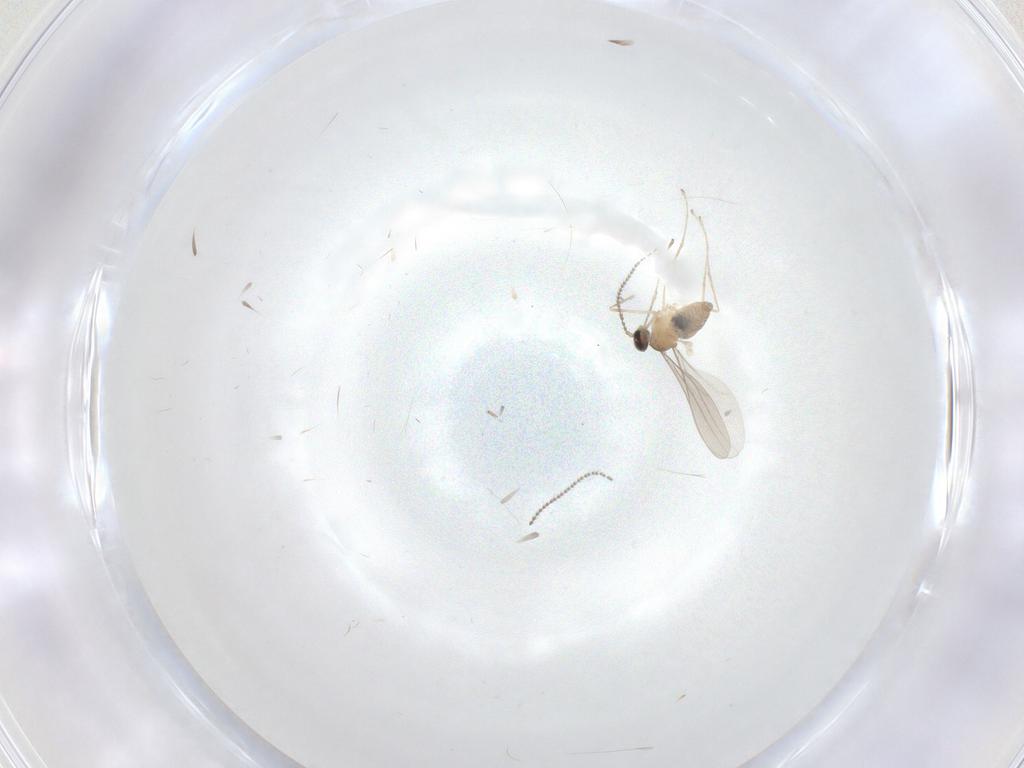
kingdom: Animalia
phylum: Arthropoda
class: Insecta
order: Diptera
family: Cecidomyiidae
